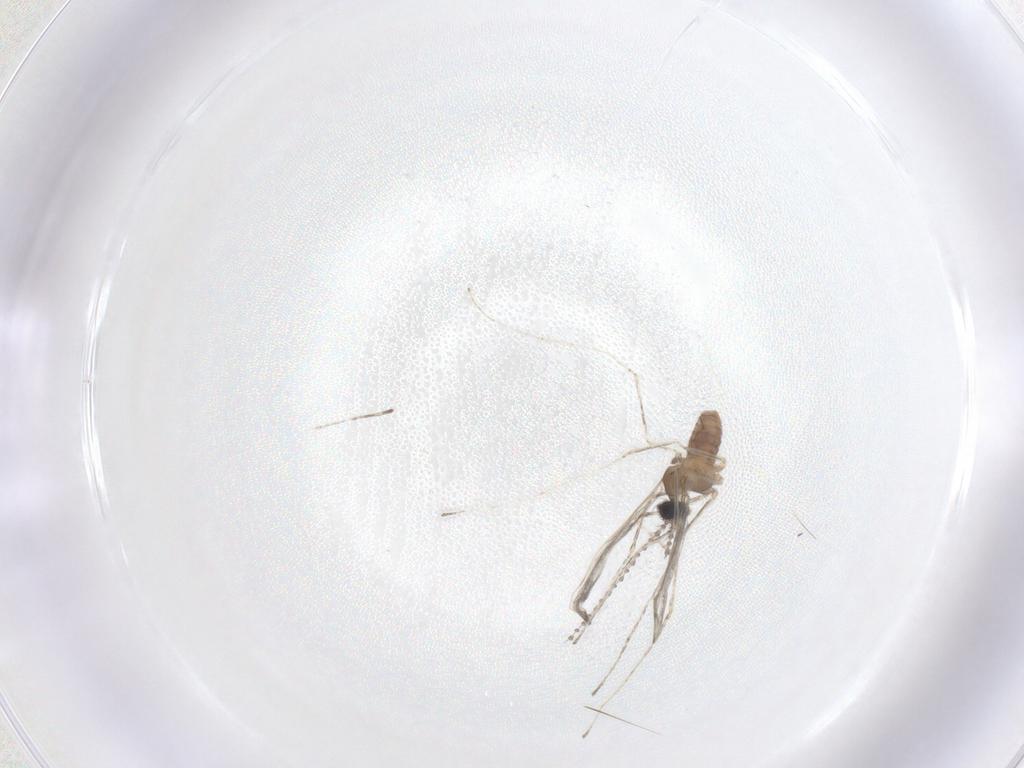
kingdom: Animalia
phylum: Arthropoda
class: Insecta
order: Diptera
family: Cecidomyiidae
